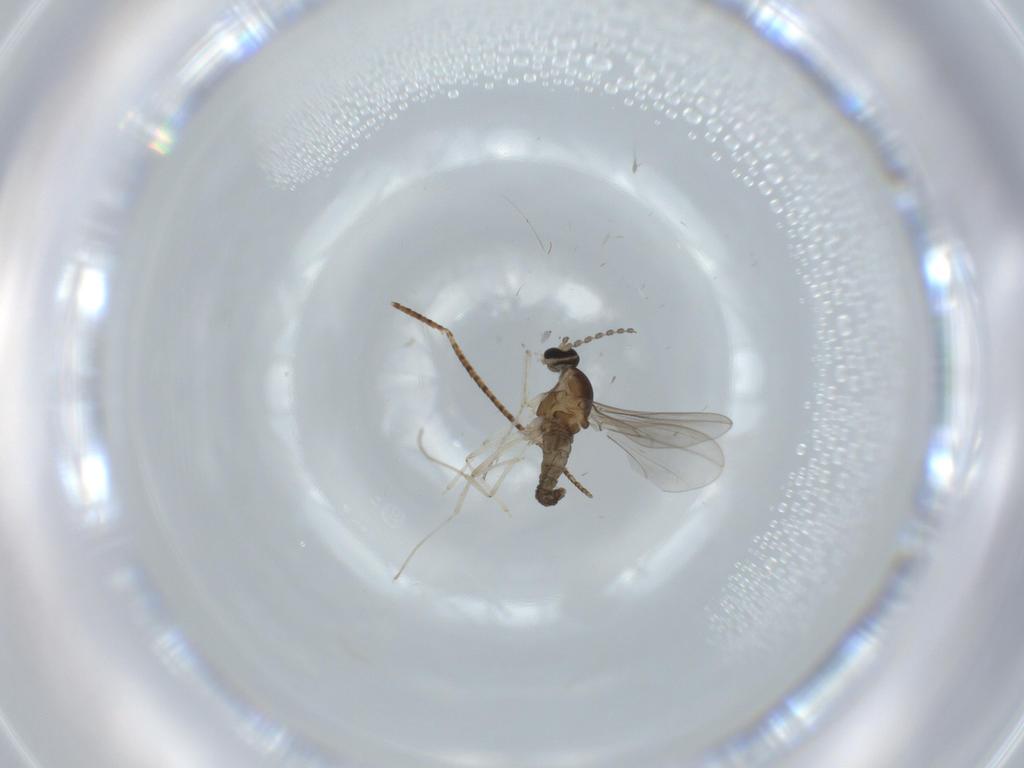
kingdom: Animalia
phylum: Arthropoda
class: Insecta
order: Diptera
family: Cecidomyiidae
